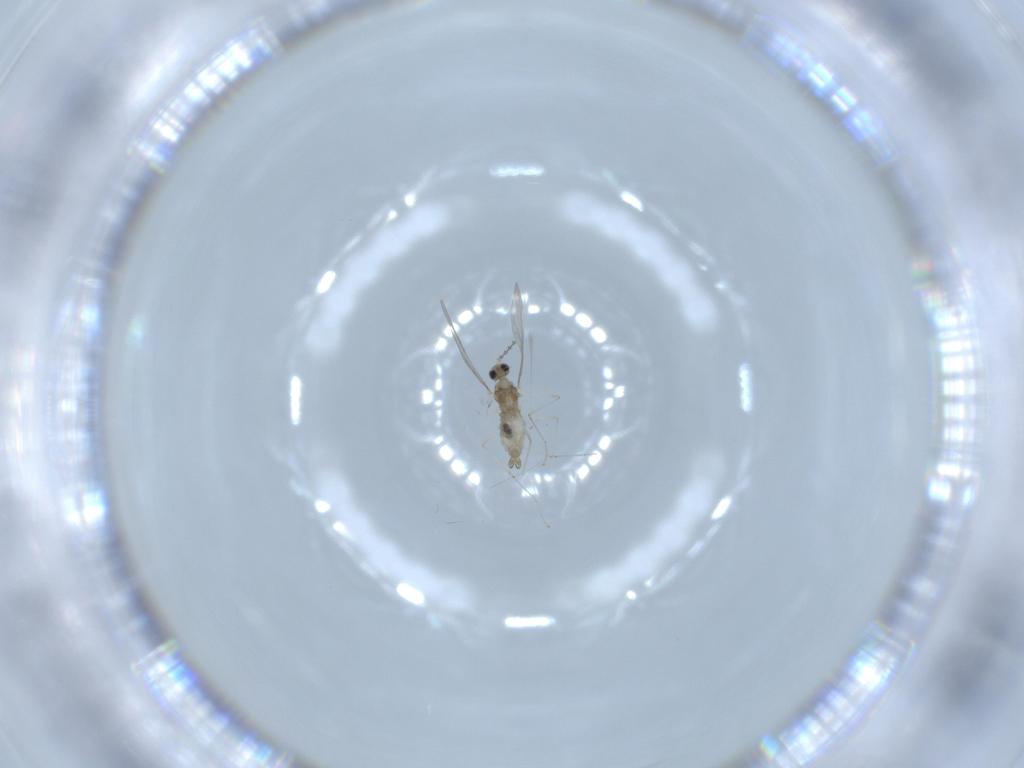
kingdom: Animalia
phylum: Arthropoda
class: Insecta
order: Diptera
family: Cecidomyiidae
